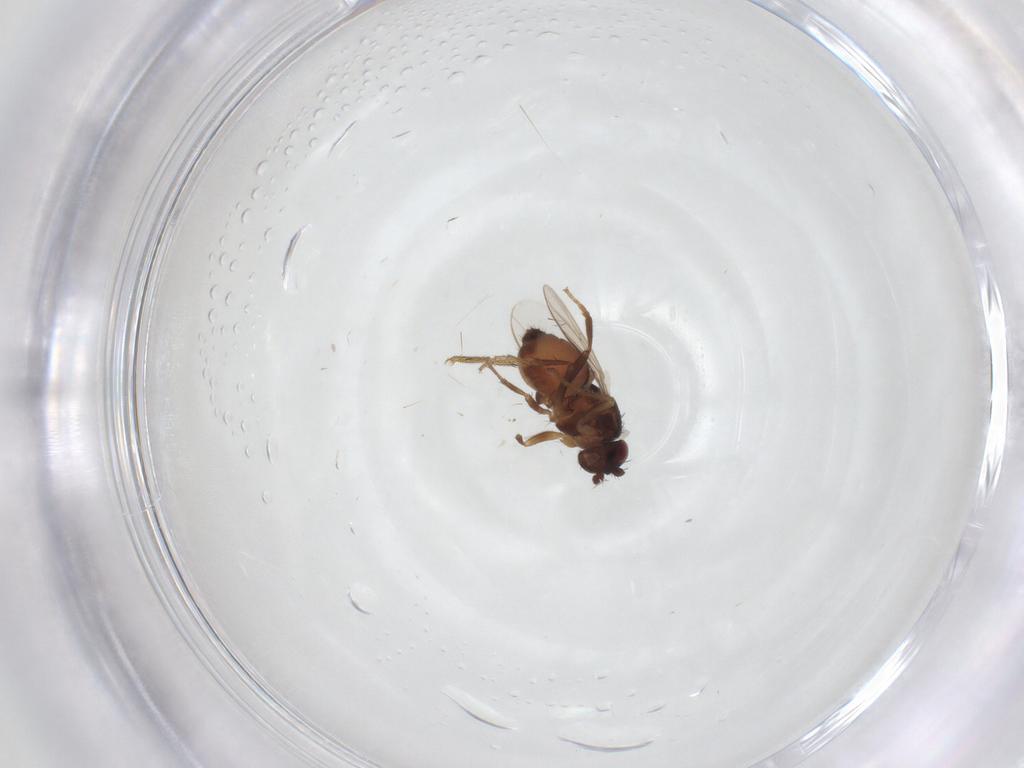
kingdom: Animalia
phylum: Arthropoda
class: Insecta
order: Diptera
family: Sphaeroceridae
